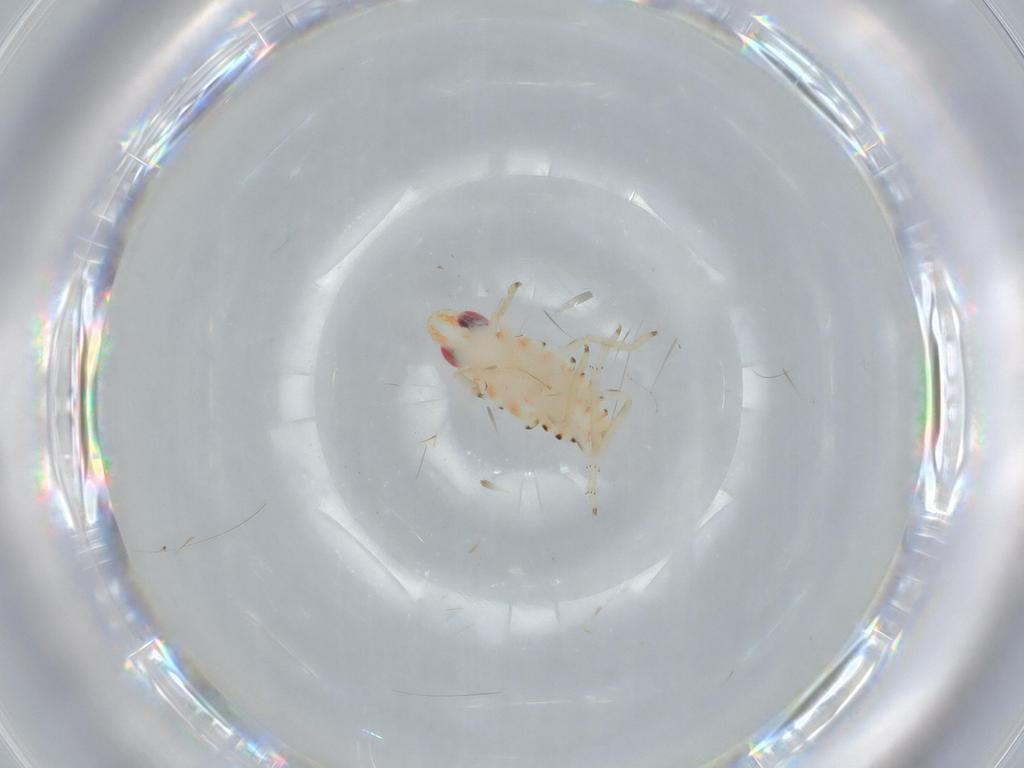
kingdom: Animalia
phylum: Arthropoda
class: Insecta
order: Hemiptera
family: Tropiduchidae
